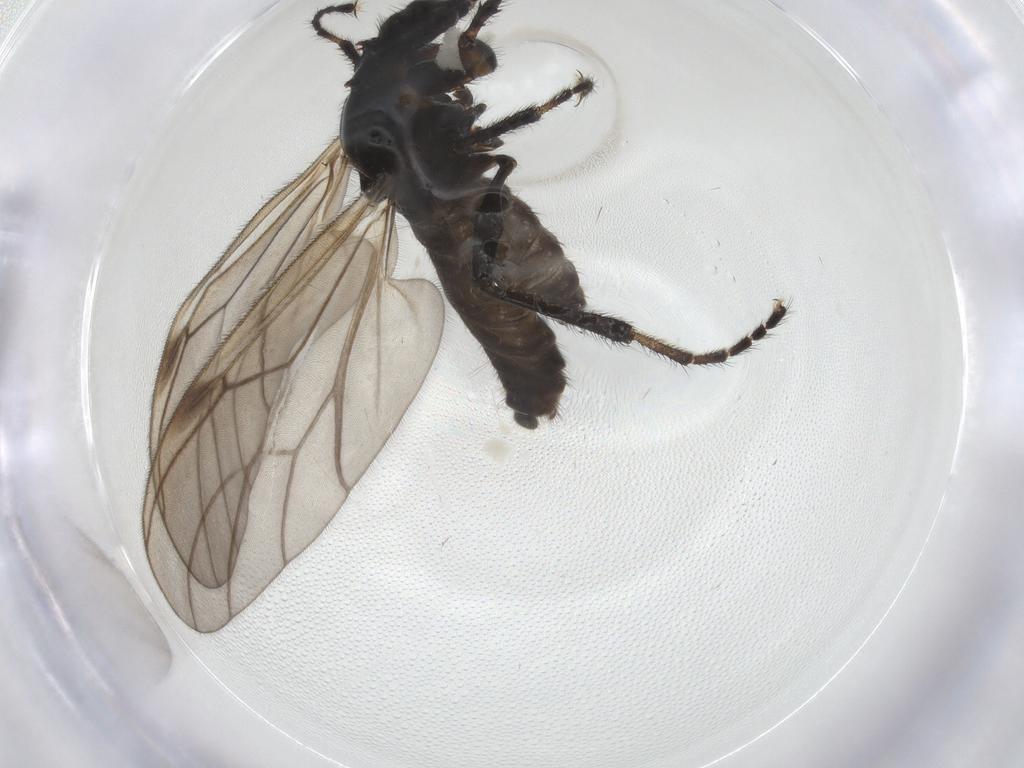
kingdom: Animalia
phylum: Arthropoda
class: Insecta
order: Diptera
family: Bibionidae
